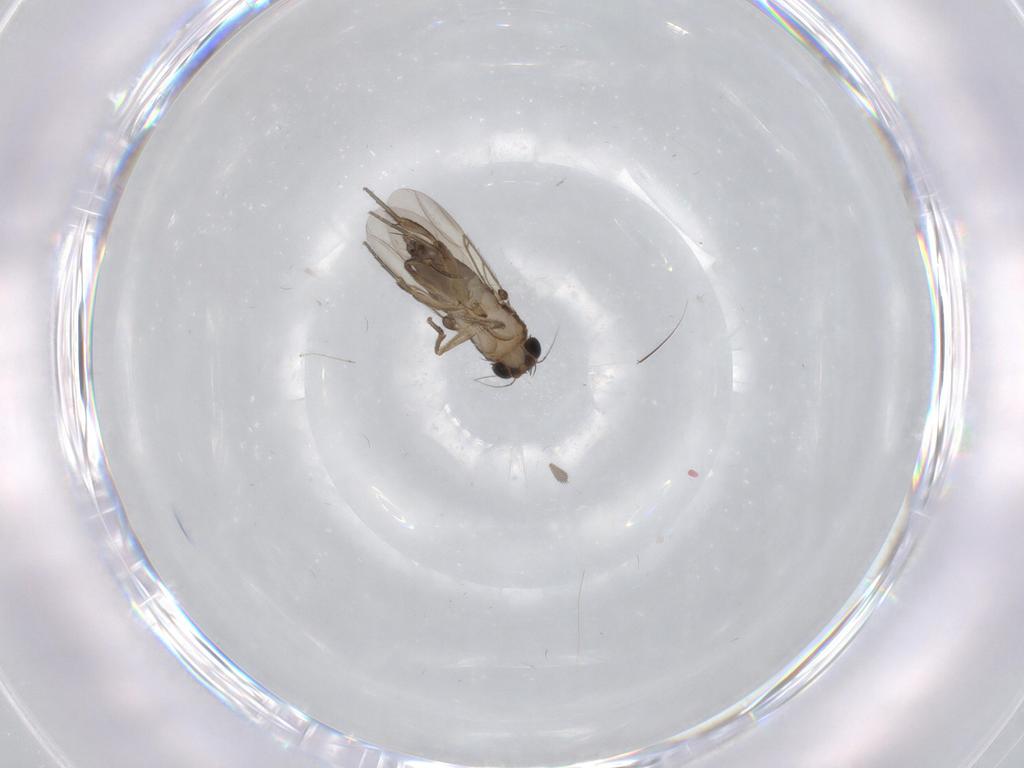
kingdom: Animalia
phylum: Arthropoda
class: Insecta
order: Diptera
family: Phoridae
